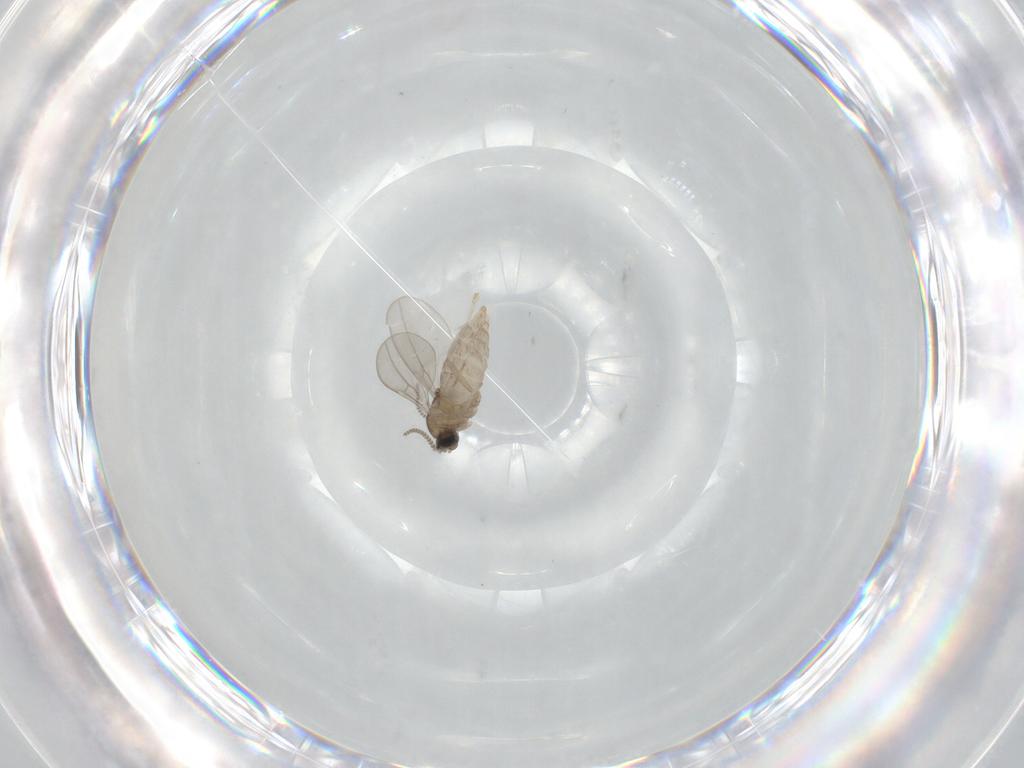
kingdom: Animalia
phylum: Arthropoda
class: Insecta
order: Diptera
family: Cecidomyiidae
